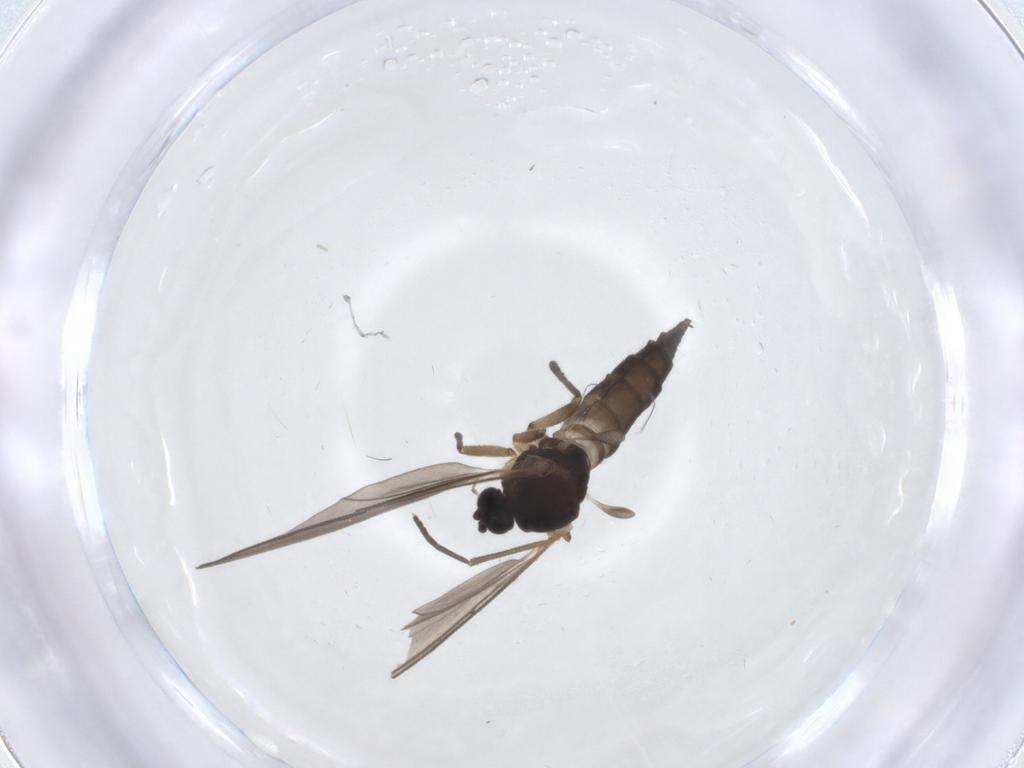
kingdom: Animalia
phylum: Arthropoda
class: Insecta
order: Diptera
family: Sciaridae
